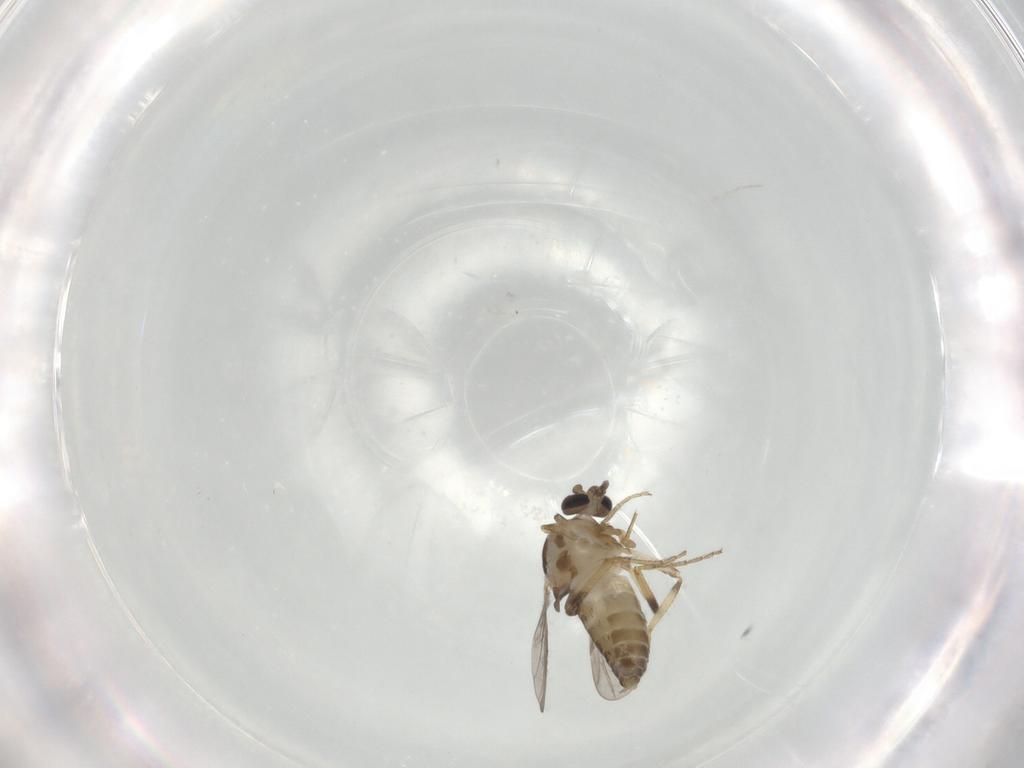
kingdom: Animalia
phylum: Arthropoda
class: Insecta
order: Diptera
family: Ceratopogonidae
